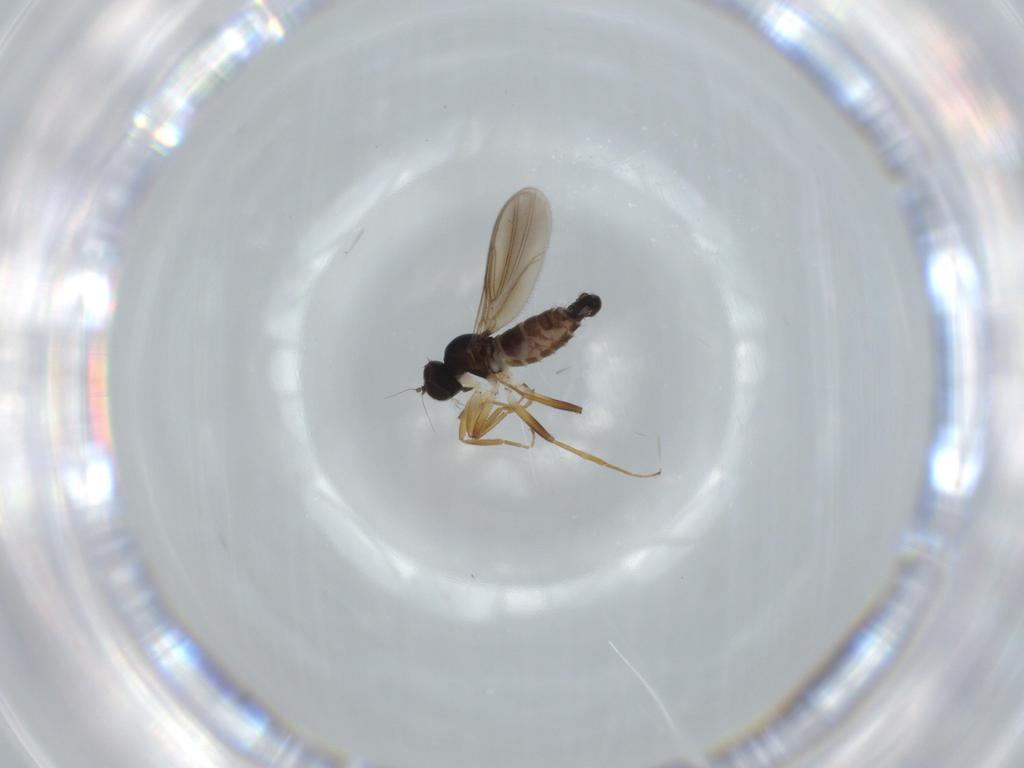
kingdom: Animalia
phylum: Arthropoda
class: Insecta
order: Diptera
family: Hybotidae
